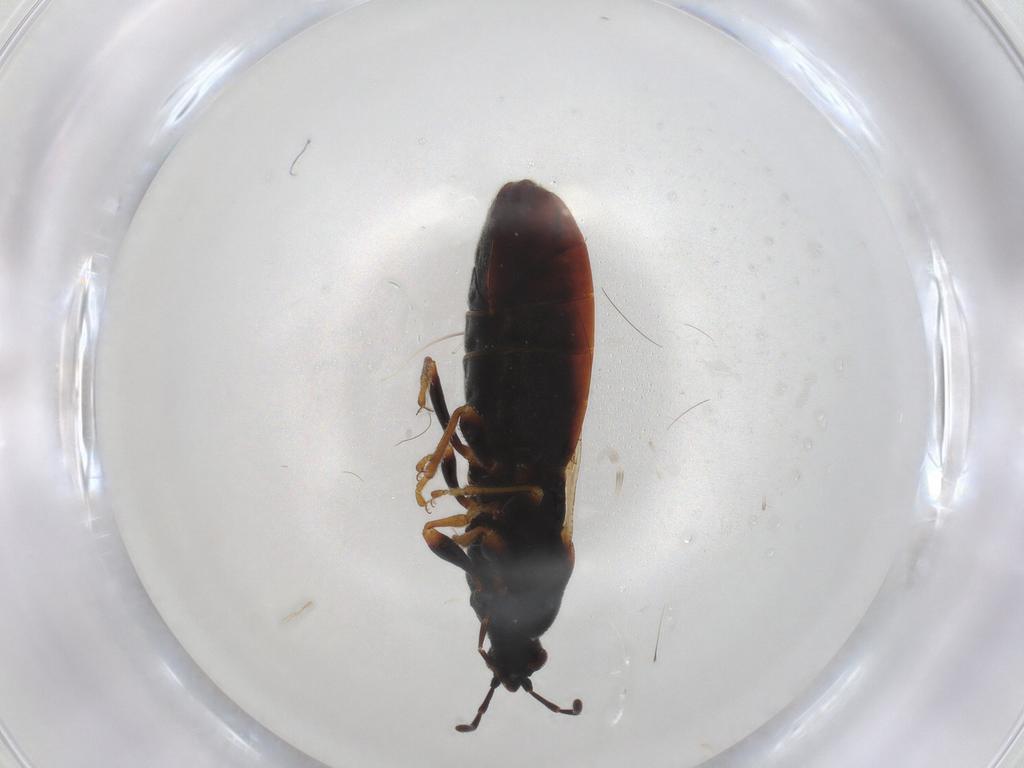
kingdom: Animalia
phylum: Arthropoda
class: Insecta
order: Hemiptera
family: Blissidae
